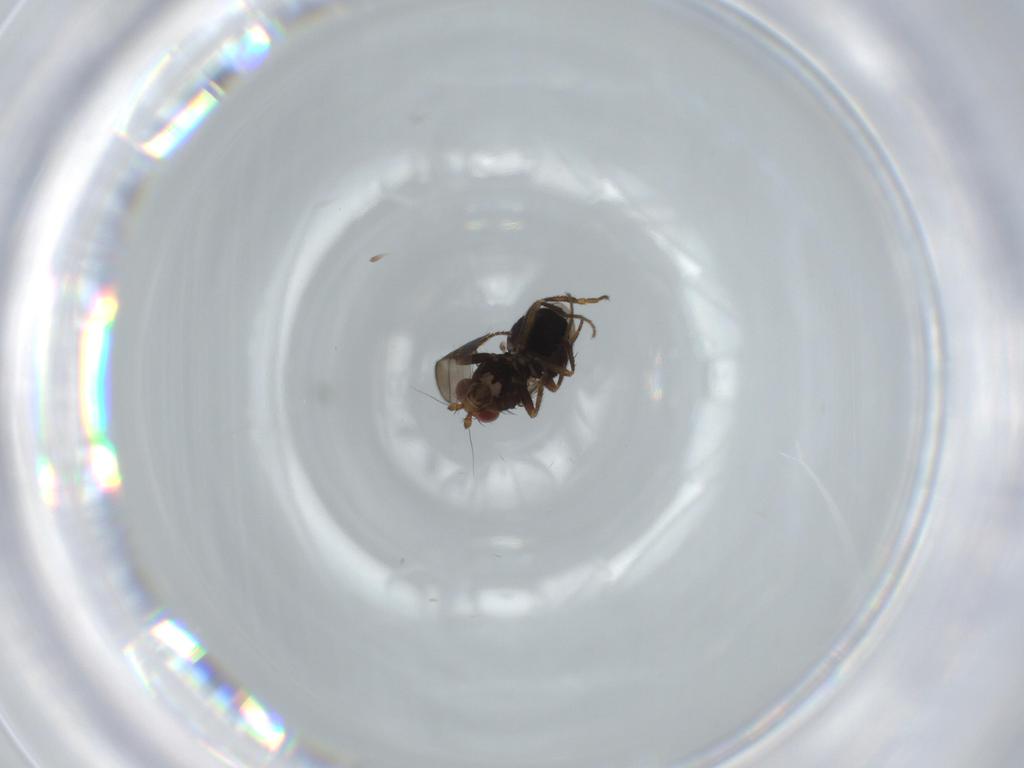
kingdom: Animalia
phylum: Arthropoda
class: Insecta
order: Diptera
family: Sphaeroceridae
